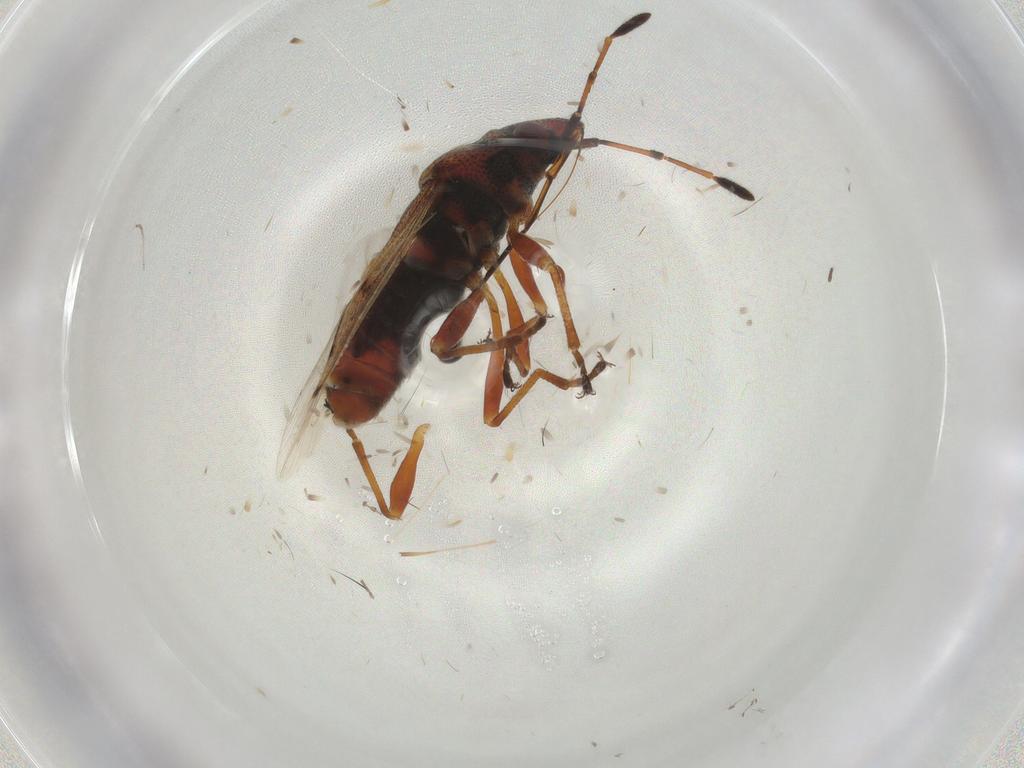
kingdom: Animalia
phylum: Arthropoda
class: Insecta
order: Hemiptera
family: Lygaeidae
